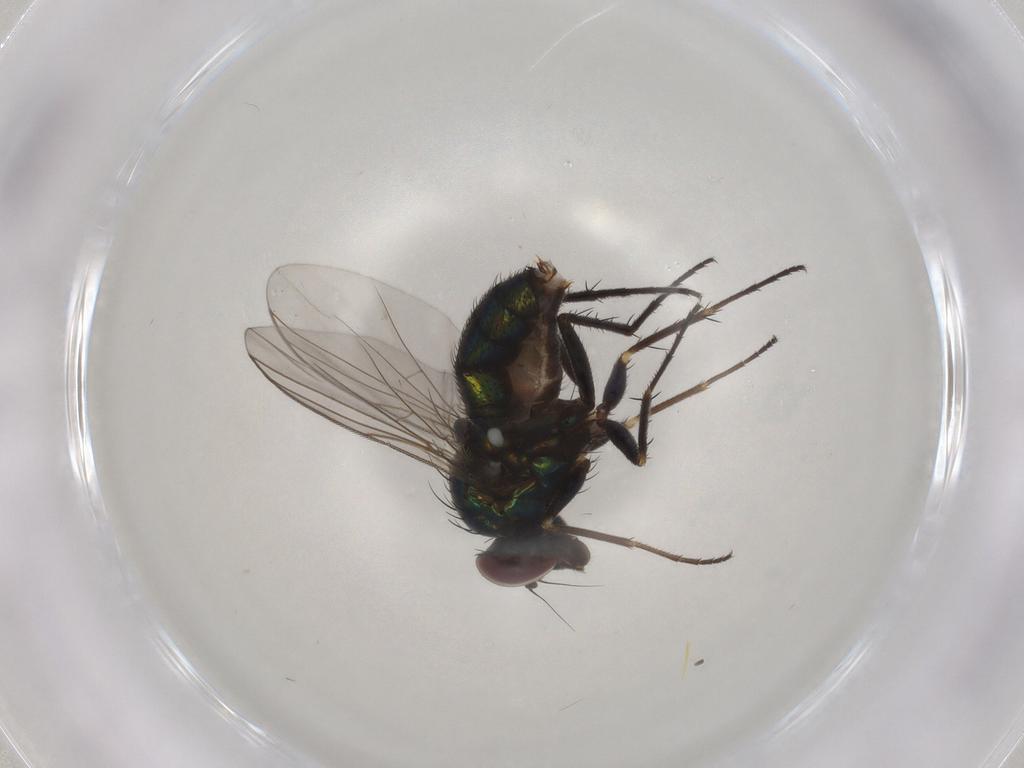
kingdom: Animalia
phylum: Arthropoda
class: Insecta
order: Diptera
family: Dolichopodidae
